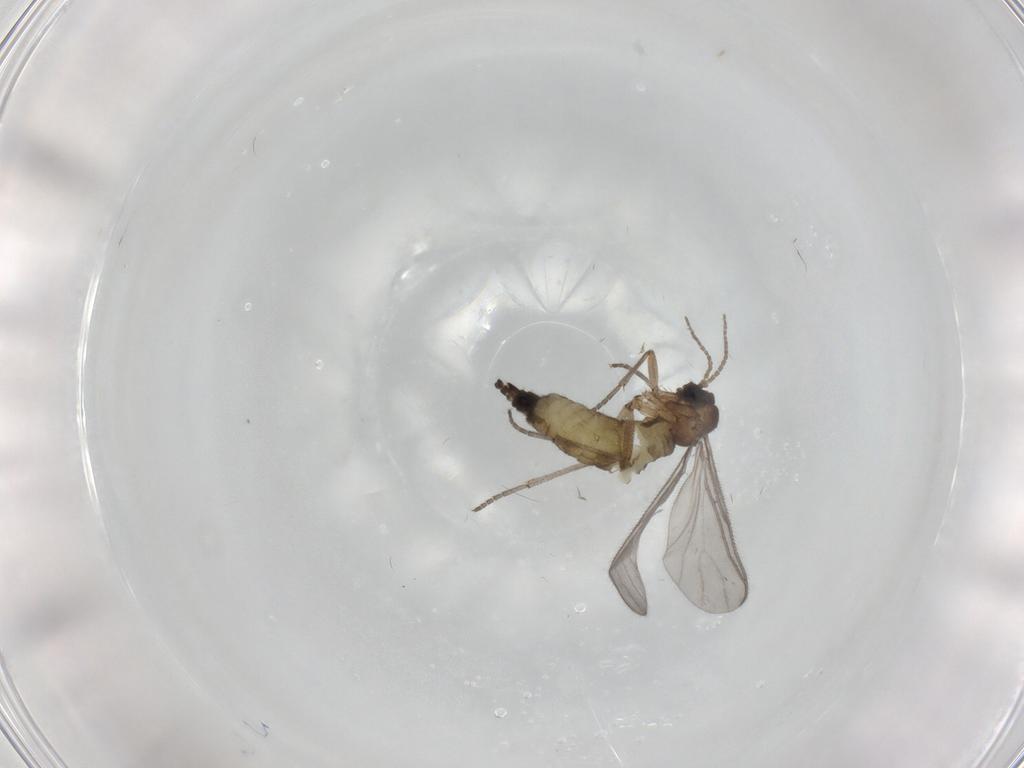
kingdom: Animalia
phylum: Arthropoda
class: Insecta
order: Diptera
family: Sciaridae
